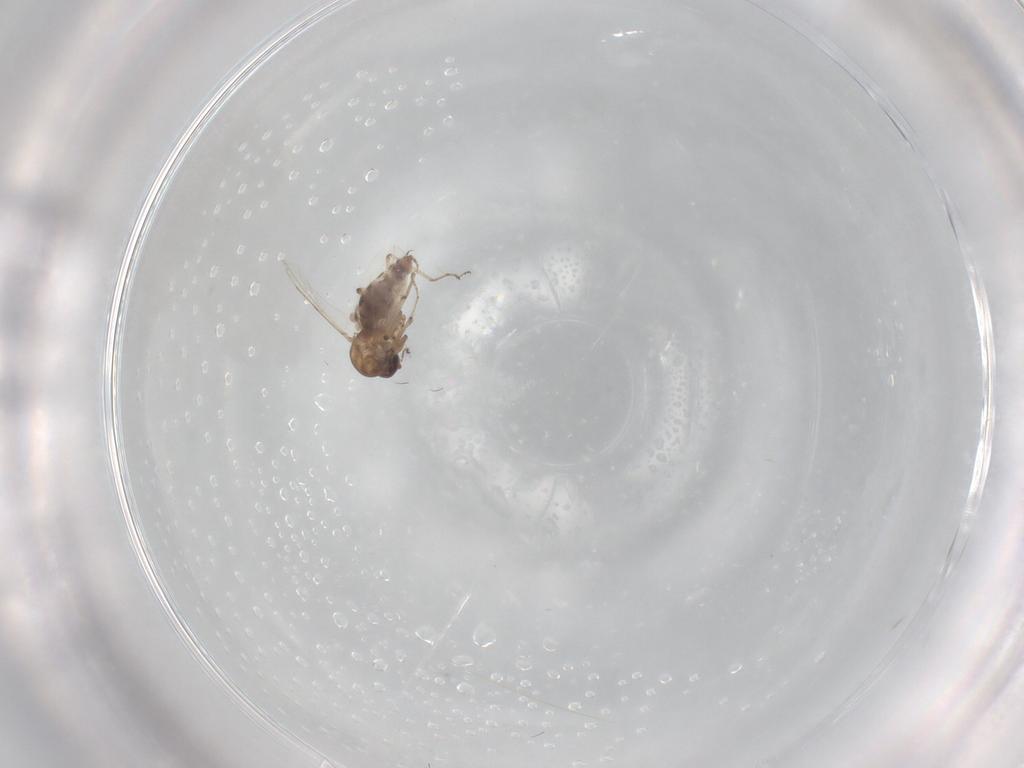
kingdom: Animalia
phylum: Arthropoda
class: Insecta
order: Diptera
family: Ceratopogonidae
